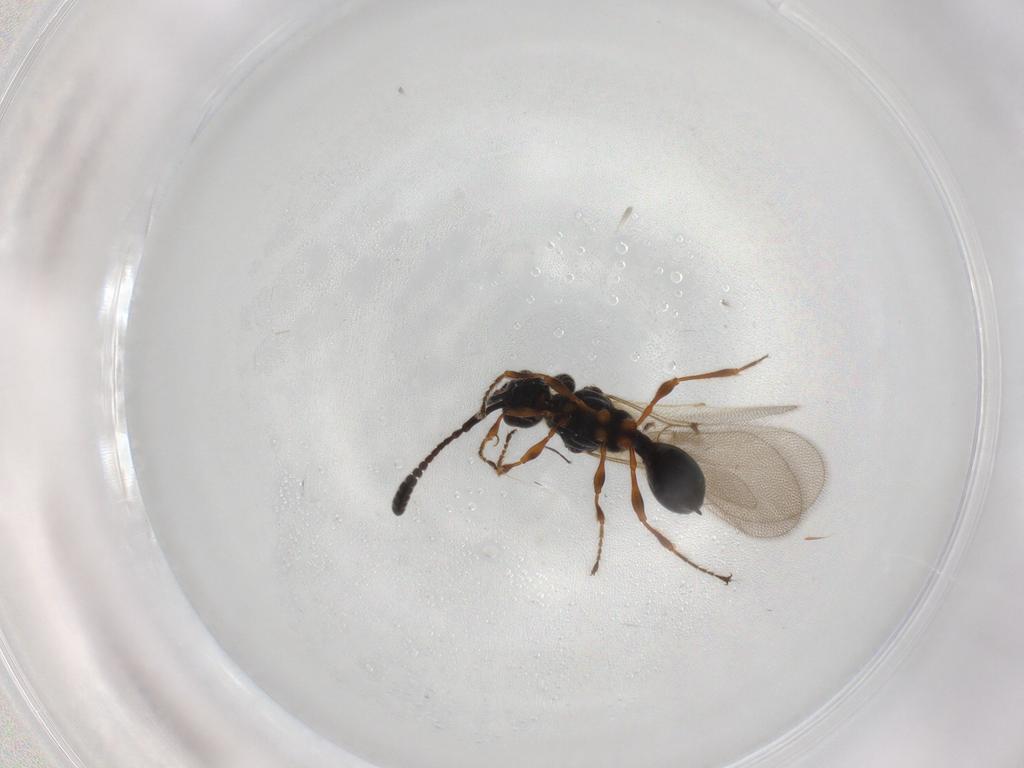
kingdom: Animalia
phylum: Arthropoda
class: Insecta
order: Hymenoptera
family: Diapriidae
